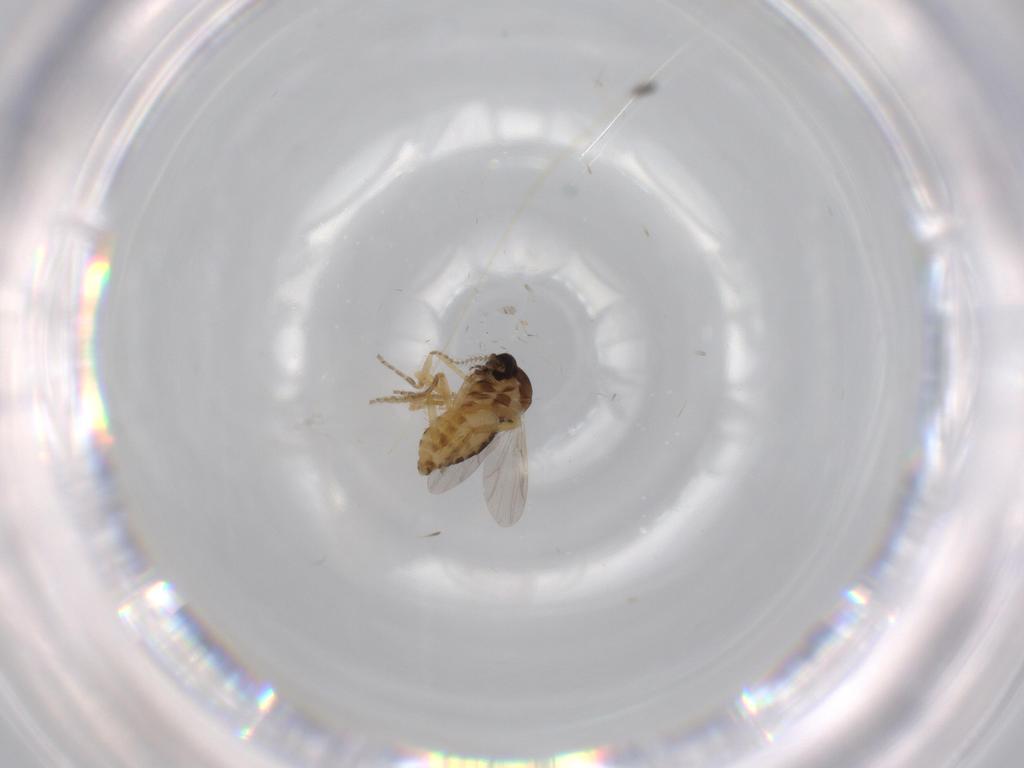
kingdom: Animalia
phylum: Arthropoda
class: Insecta
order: Diptera
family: Ceratopogonidae
